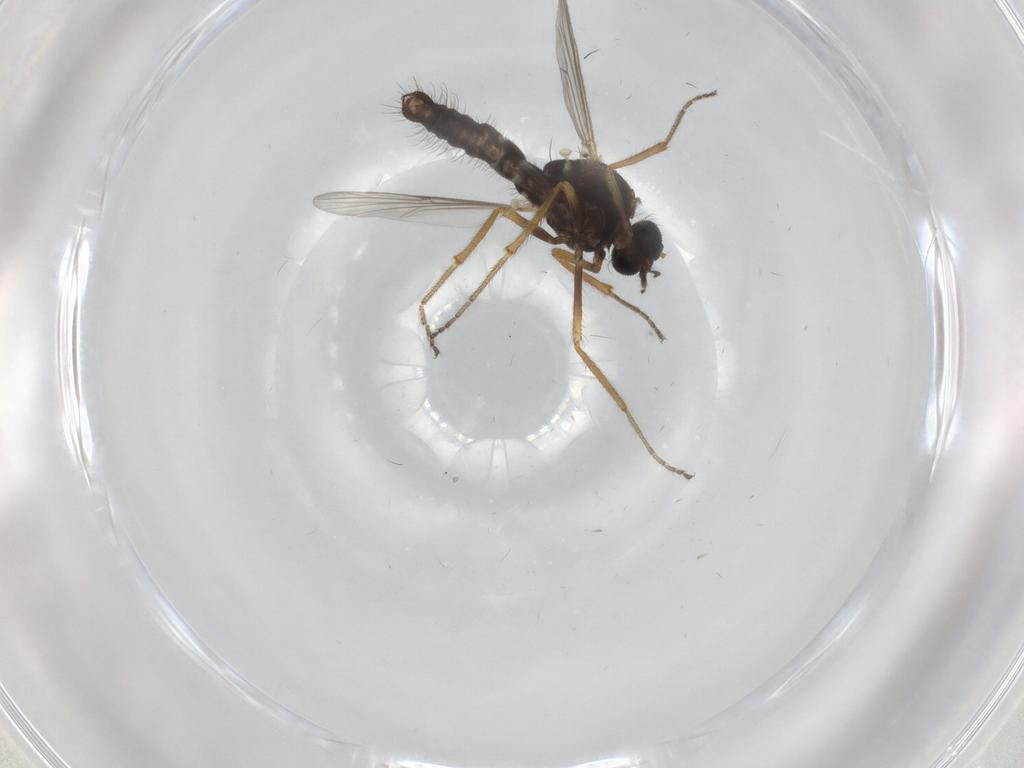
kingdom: Animalia
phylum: Arthropoda
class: Insecta
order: Diptera
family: Ceratopogonidae
